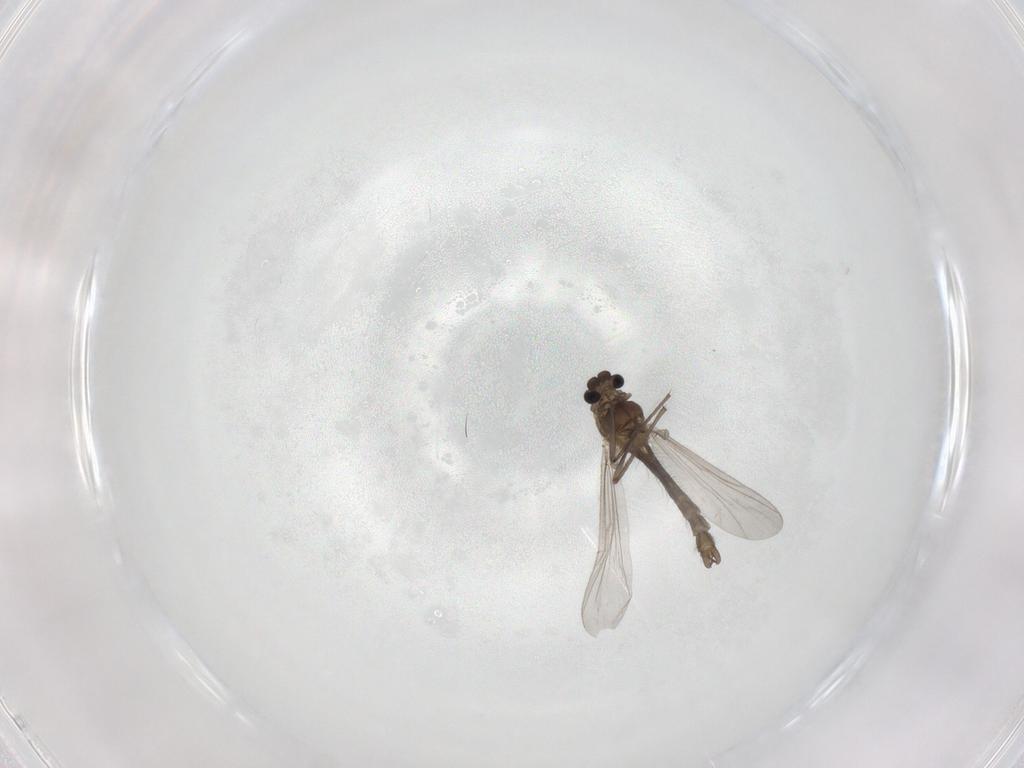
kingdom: Animalia
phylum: Arthropoda
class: Insecta
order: Diptera
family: Chironomidae
